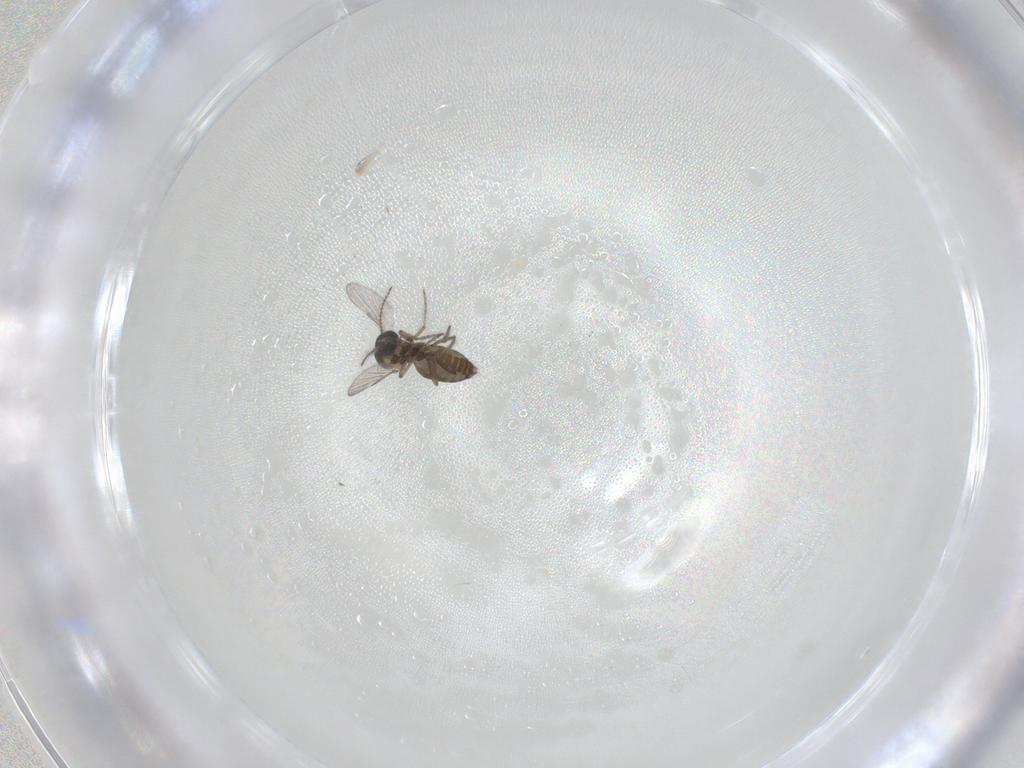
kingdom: Animalia
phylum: Arthropoda
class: Insecta
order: Diptera
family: Ceratopogonidae
